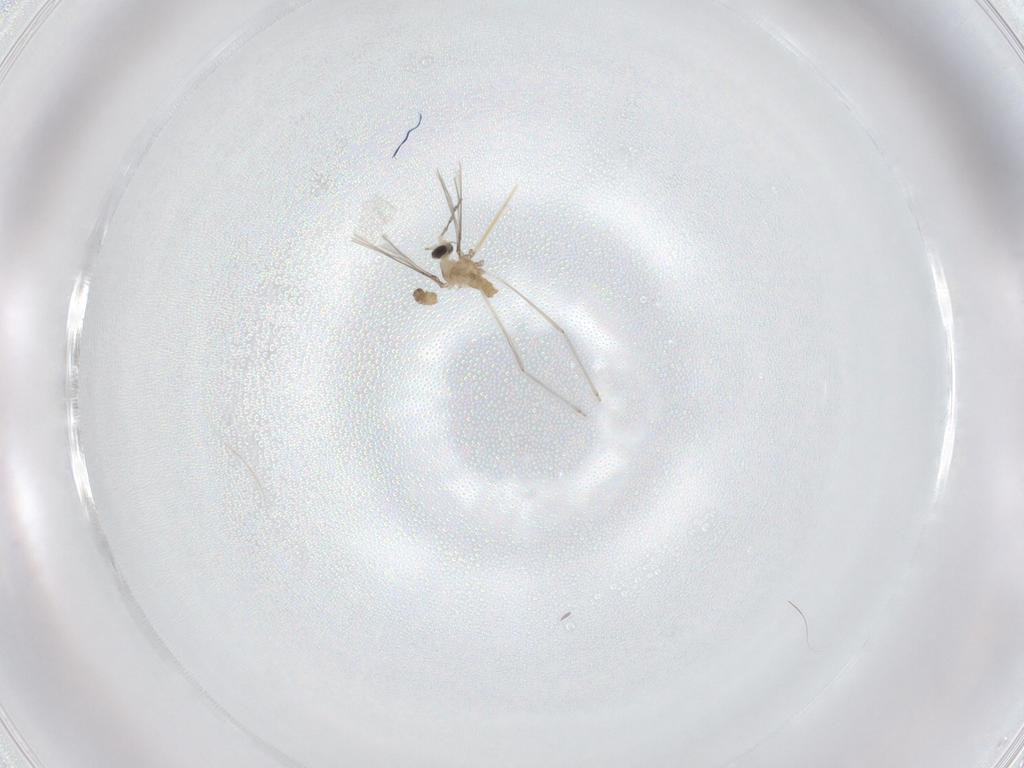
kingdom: Animalia
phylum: Arthropoda
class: Insecta
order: Diptera
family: Cecidomyiidae
